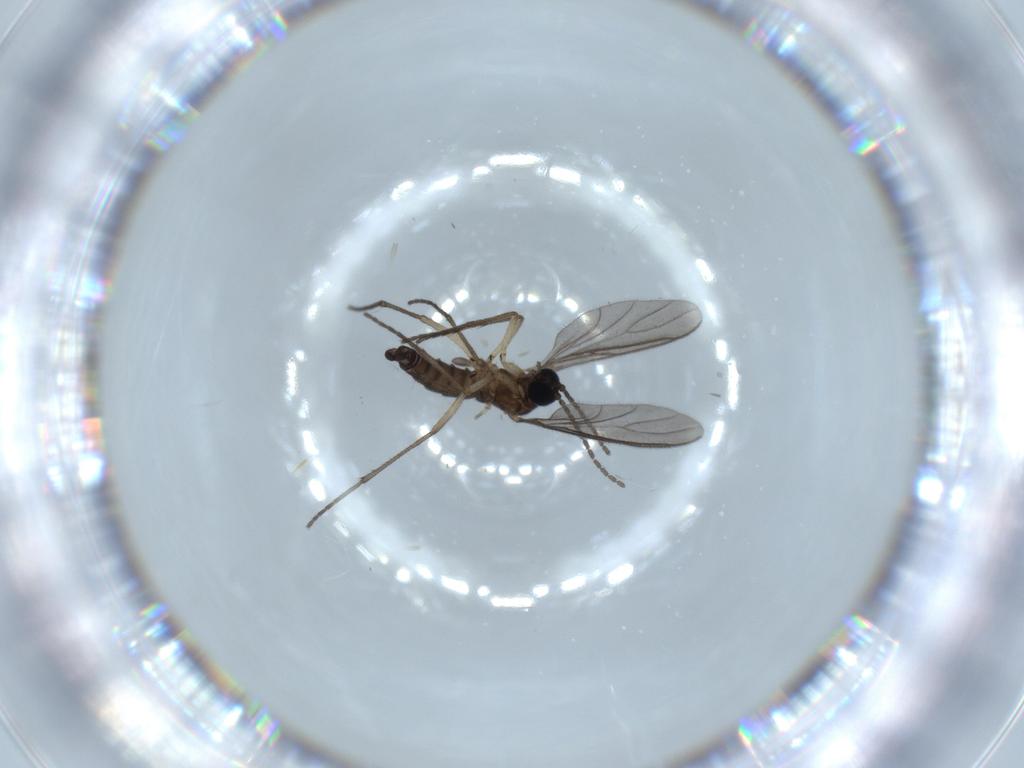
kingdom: Animalia
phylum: Arthropoda
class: Insecta
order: Diptera
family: Sciaridae
